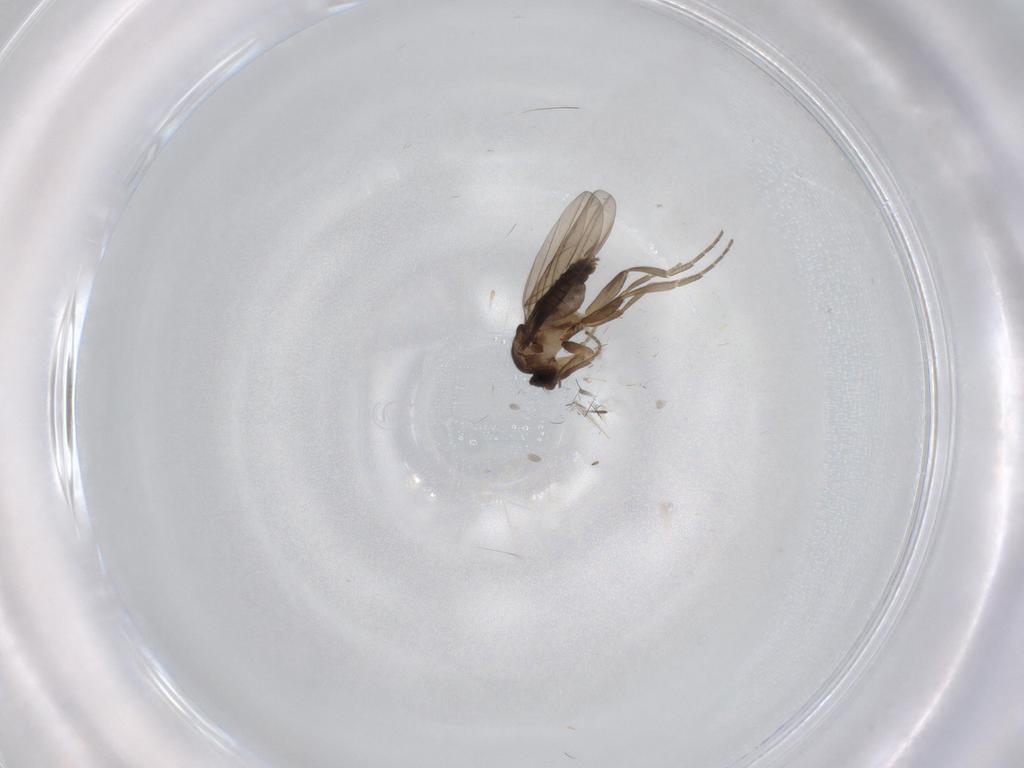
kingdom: Animalia
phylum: Arthropoda
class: Insecta
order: Diptera
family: Phoridae
